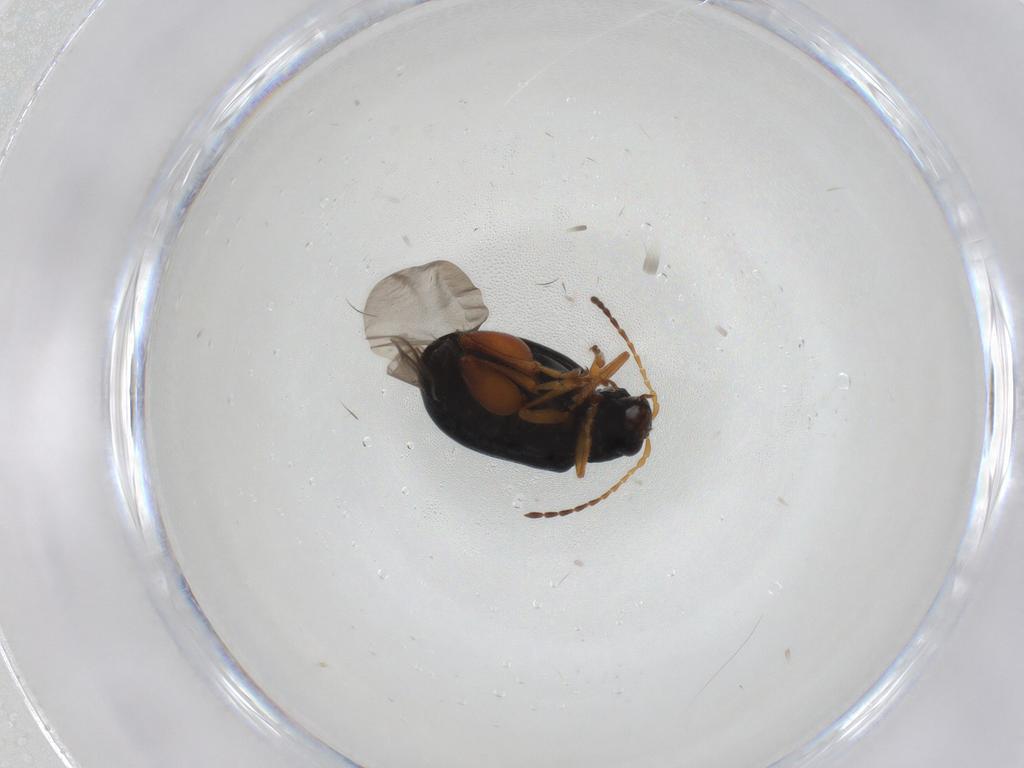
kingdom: Animalia
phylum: Arthropoda
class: Insecta
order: Coleoptera
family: Chrysomelidae
